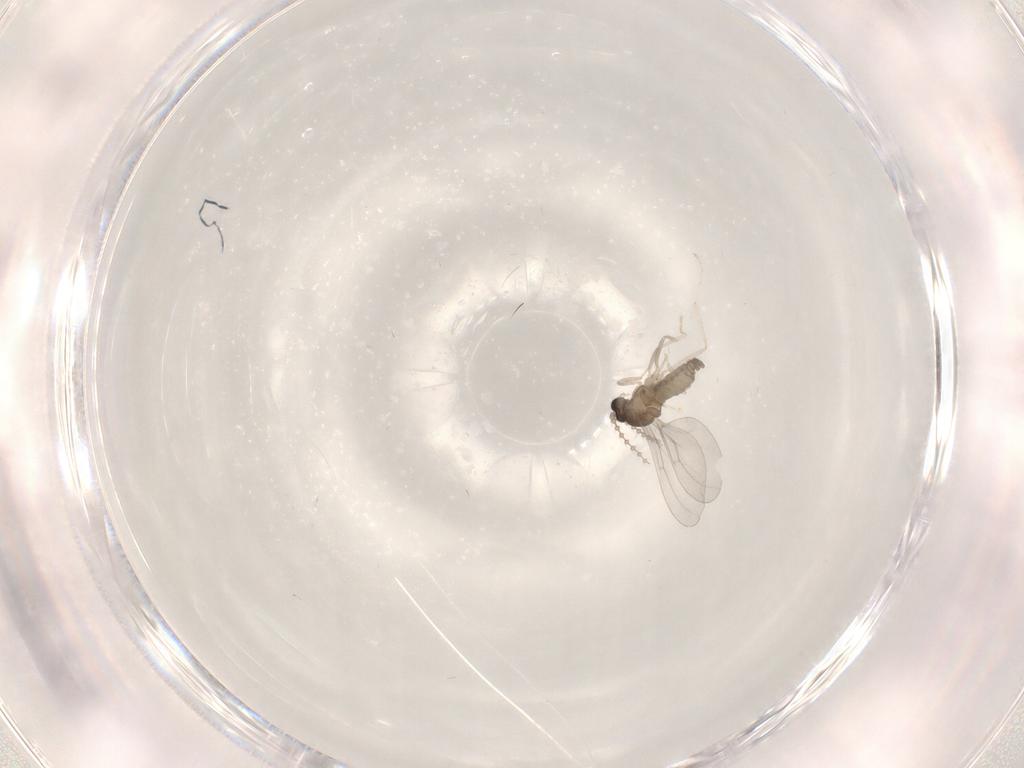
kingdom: Animalia
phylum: Arthropoda
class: Insecta
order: Diptera
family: Cecidomyiidae
